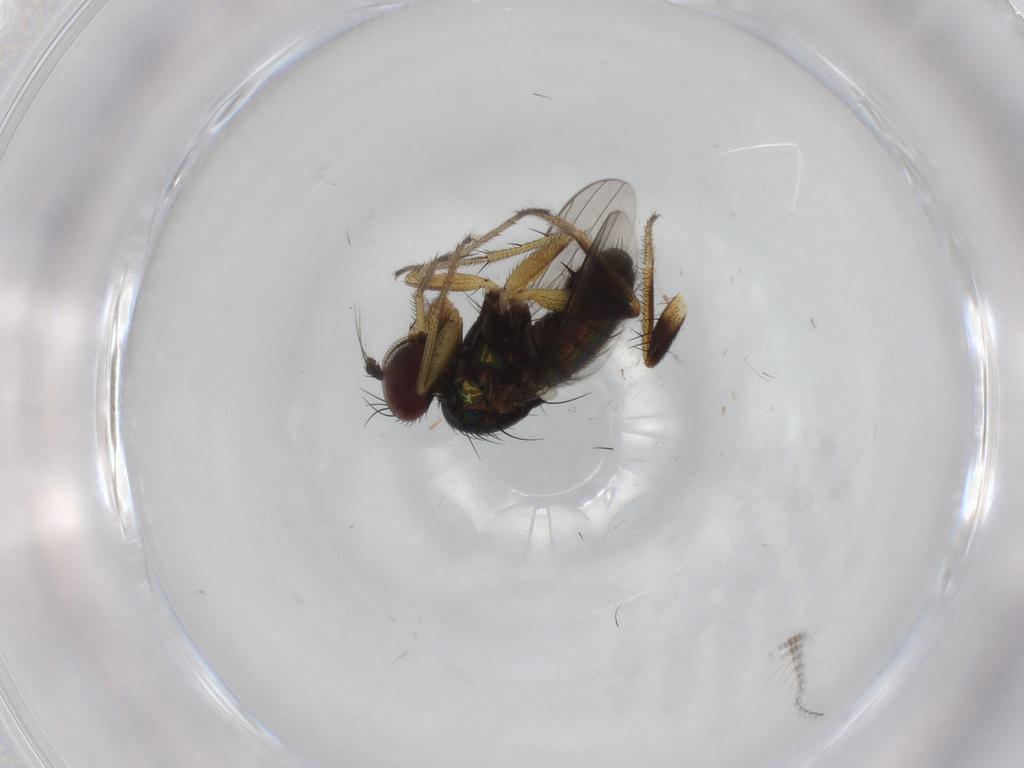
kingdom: Animalia
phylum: Arthropoda
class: Insecta
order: Diptera
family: Dolichopodidae
